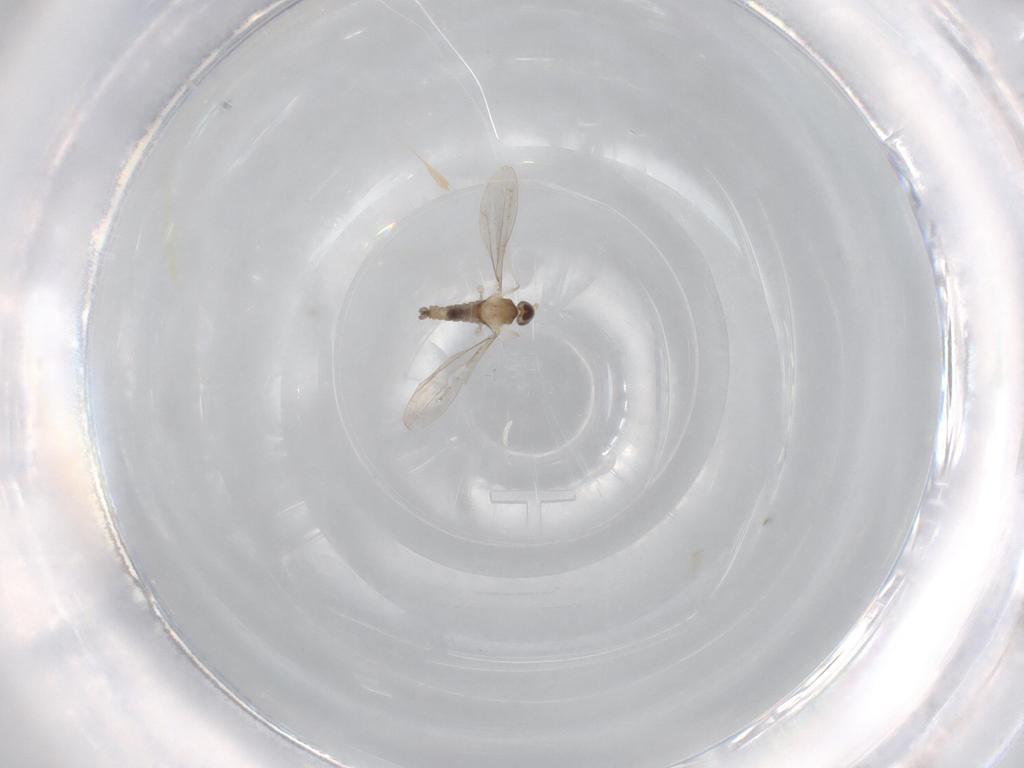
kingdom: Animalia
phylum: Arthropoda
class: Insecta
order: Diptera
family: Cecidomyiidae
